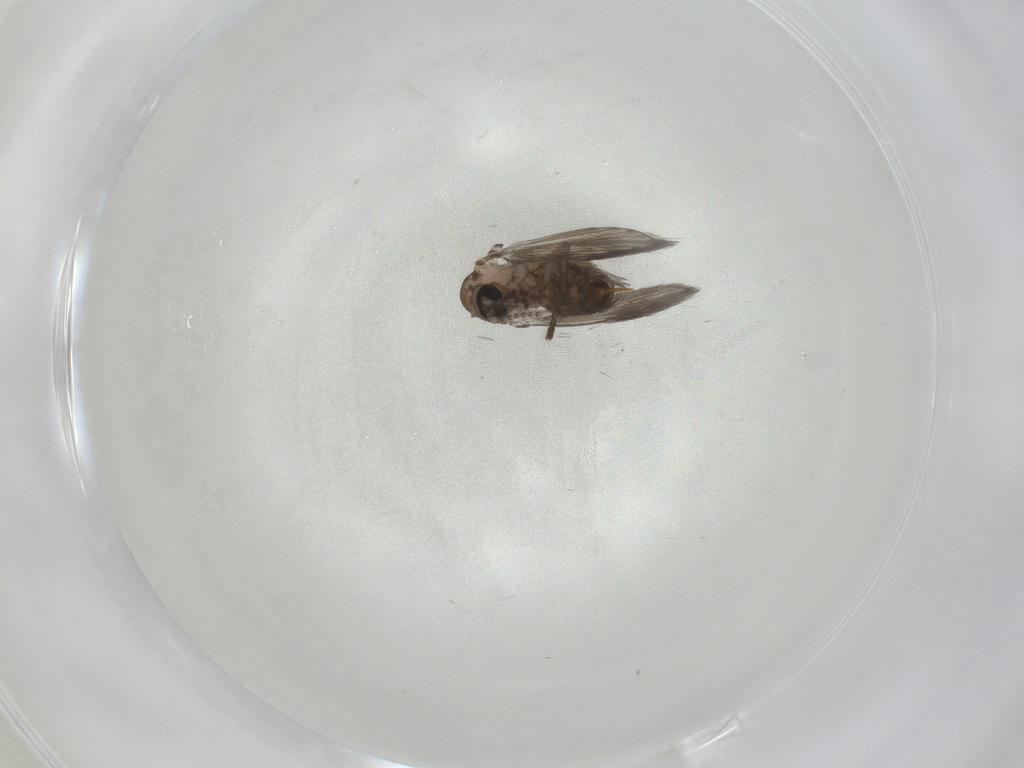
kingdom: Animalia
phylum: Arthropoda
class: Insecta
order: Diptera
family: Psychodidae
